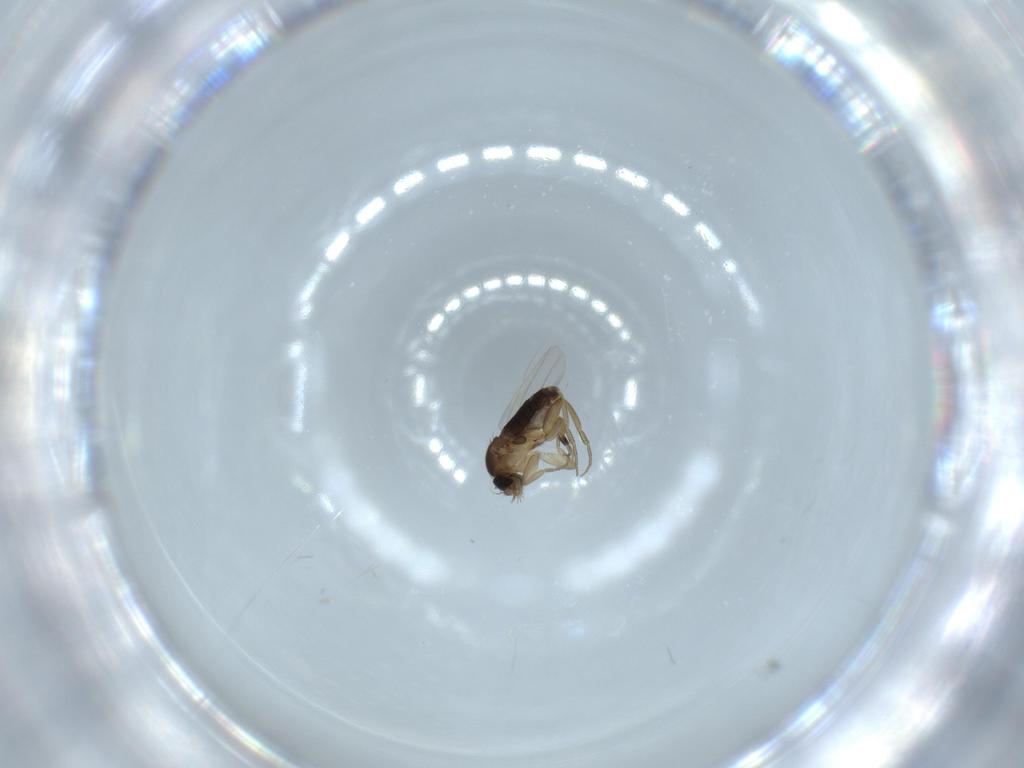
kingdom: Animalia
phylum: Arthropoda
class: Insecta
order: Diptera
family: Phoridae
